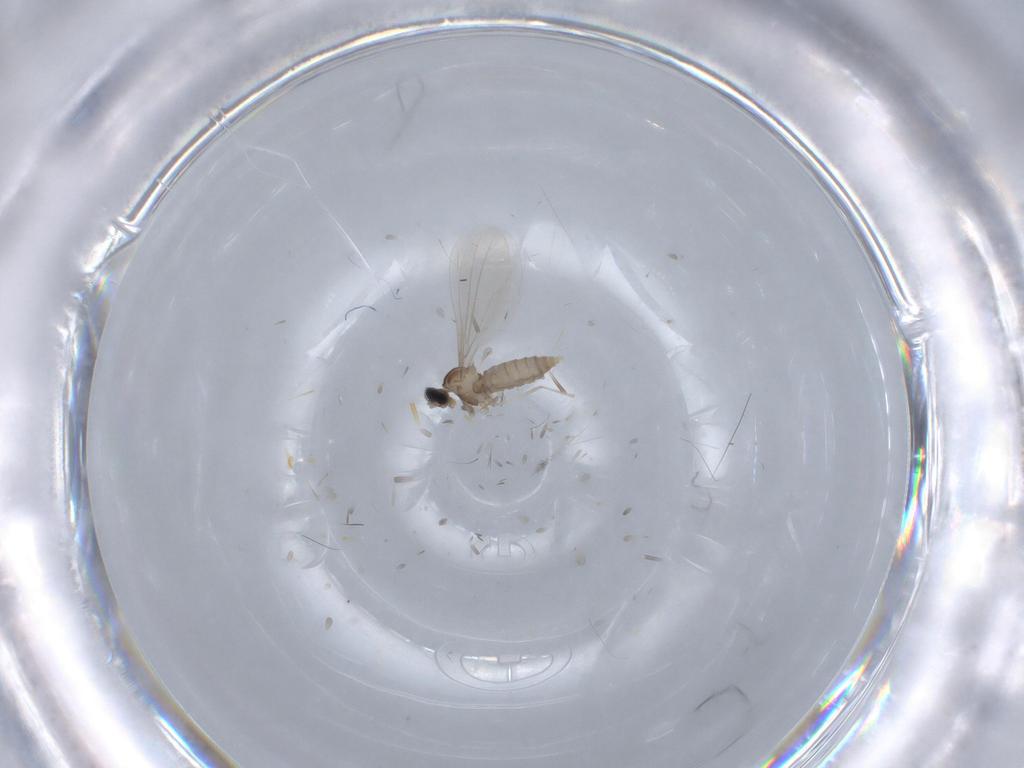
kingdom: Animalia
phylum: Arthropoda
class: Insecta
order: Diptera
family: Cecidomyiidae
